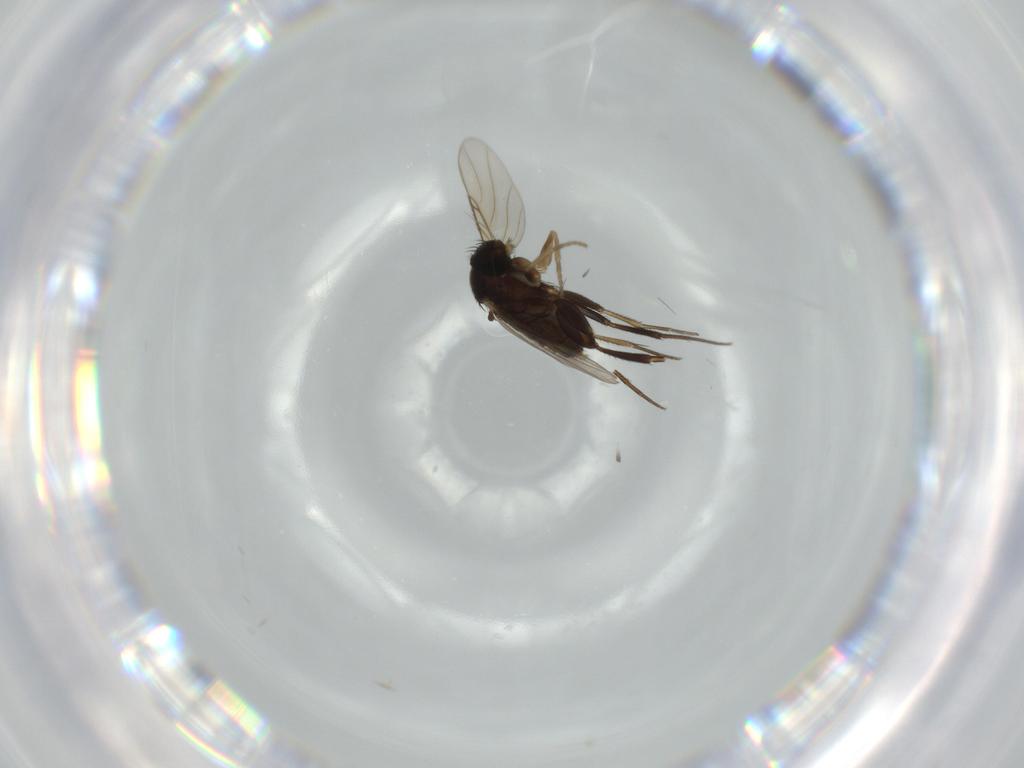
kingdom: Animalia
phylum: Arthropoda
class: Insecta
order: Diptera
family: Phoridae
